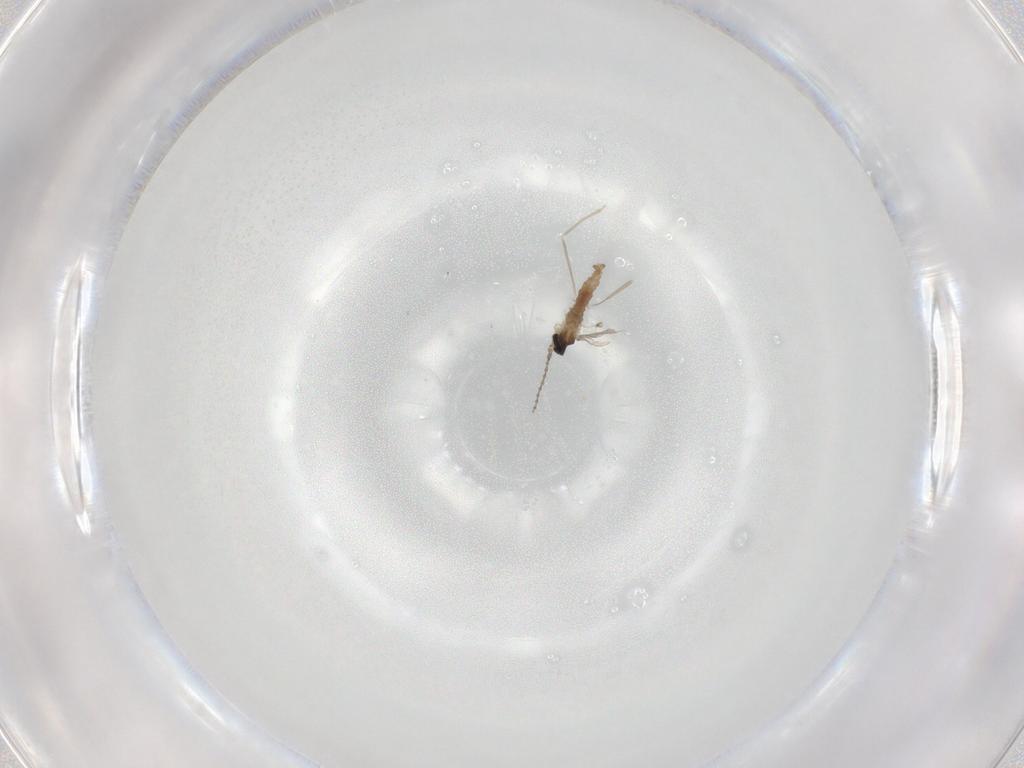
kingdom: Animalia
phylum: Arthropoda
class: Insecta
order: Diptera
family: Cecidomyiidae
